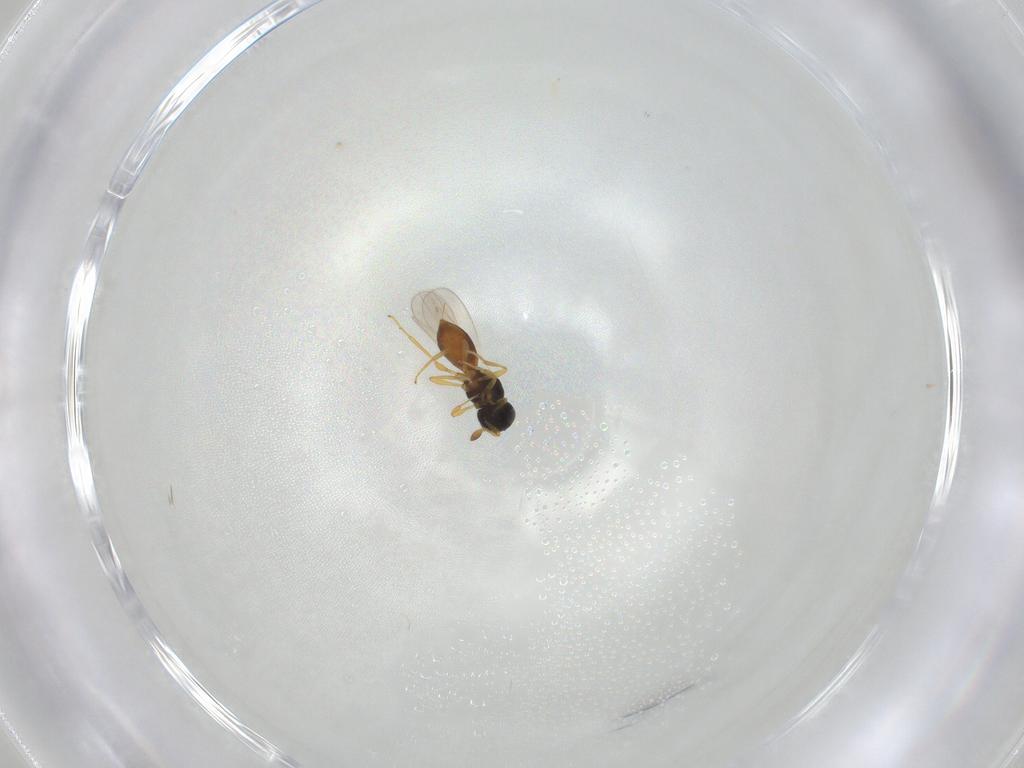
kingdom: Animalia
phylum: Arthropoda
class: Insecta
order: Hymenoptera
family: Platygastridae
